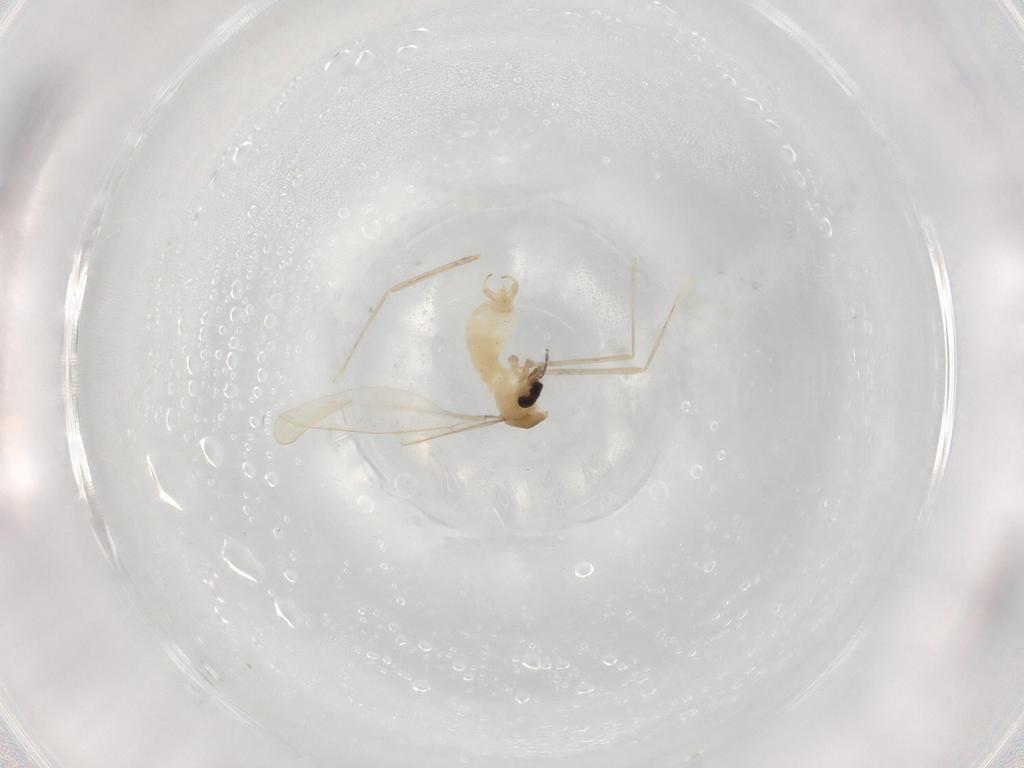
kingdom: Animalia
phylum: Arthropoda
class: Insecta
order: Diptera
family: Cecidomyiidae
